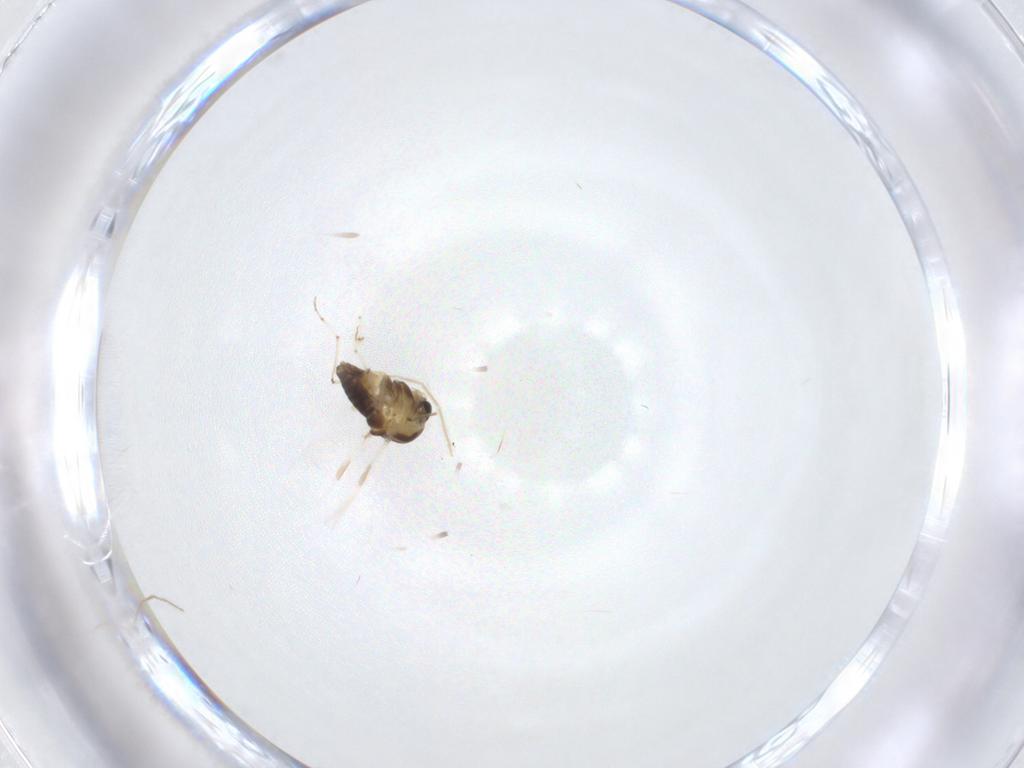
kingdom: Animalia
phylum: Arthropoda
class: Insecta
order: Diptera
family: Chironomidae
